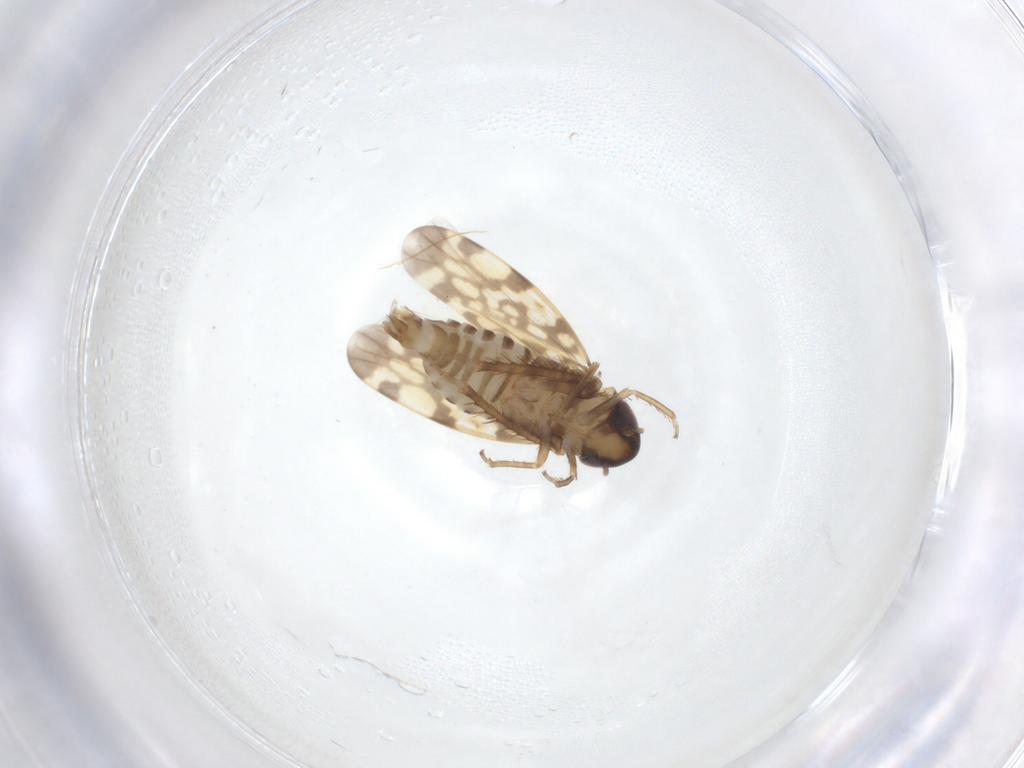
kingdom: Animalia
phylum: Arthropoda
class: Insecta
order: Hemiptera
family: Cicadellidae
